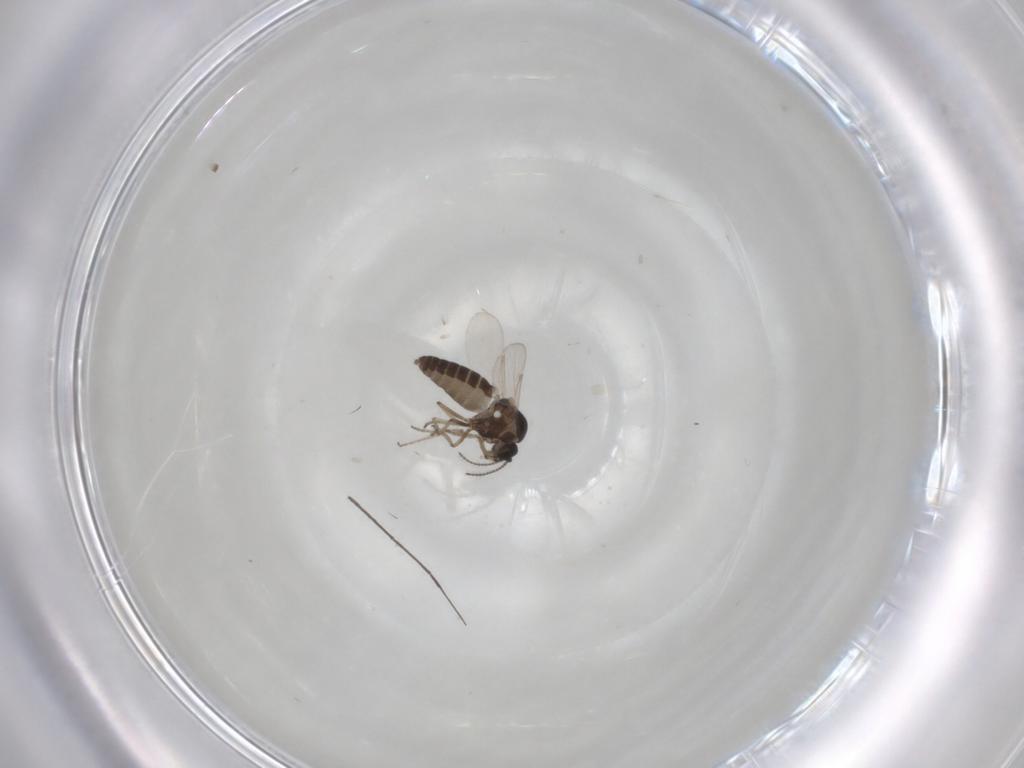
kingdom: Animalia
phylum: Arthropoda
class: Insecta
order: Diptera
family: Ceratopogonidae
